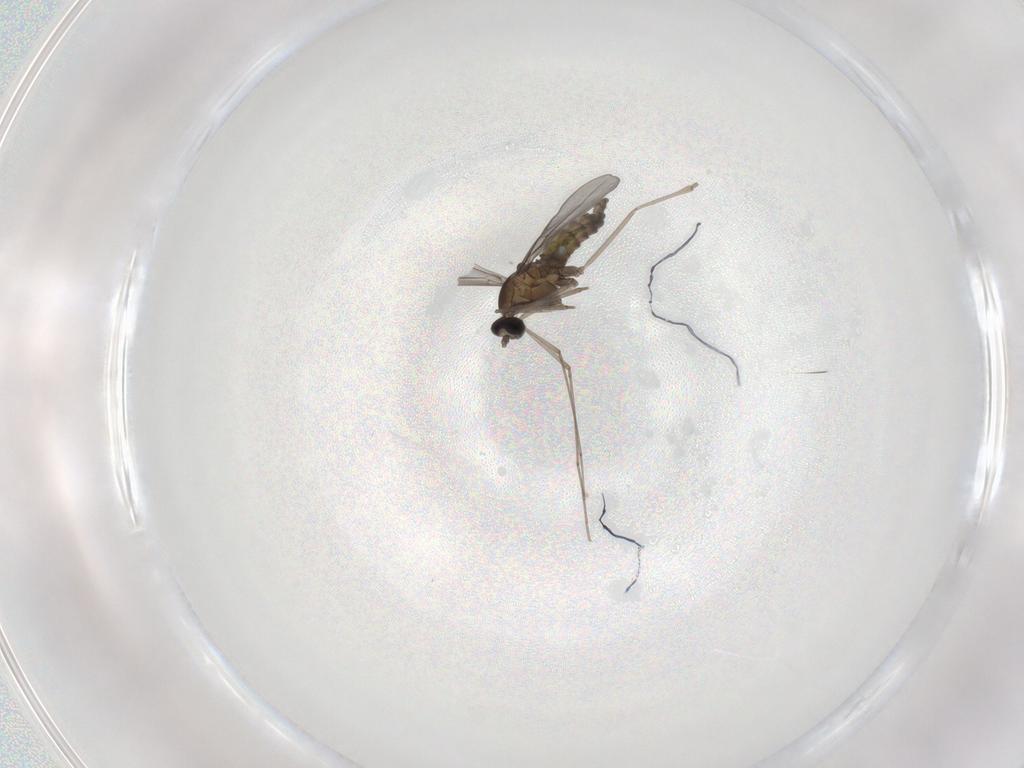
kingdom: Animalia
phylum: Arthropoda
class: Insecta
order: Diptera
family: Cecidomyiidae
